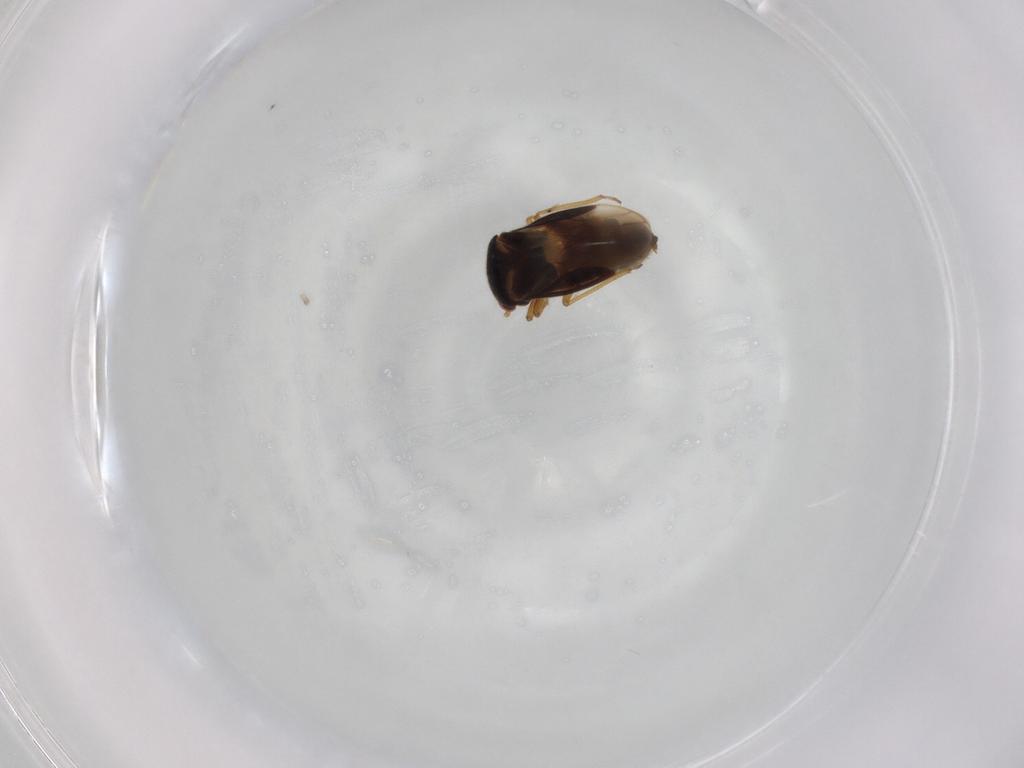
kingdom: Animalia
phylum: Arthropoda
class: Insecta
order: Hemiptera
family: Schizopteridae
